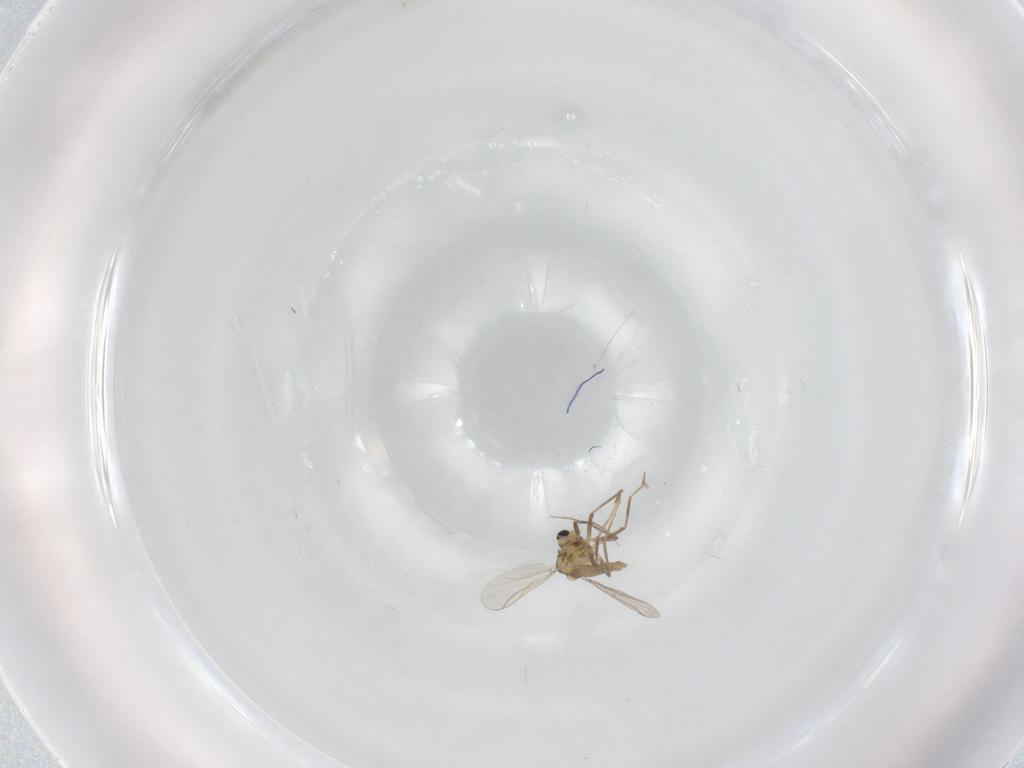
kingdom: Animalia
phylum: Arthropoda
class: Insecta
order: Diptera
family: Chironomidae
